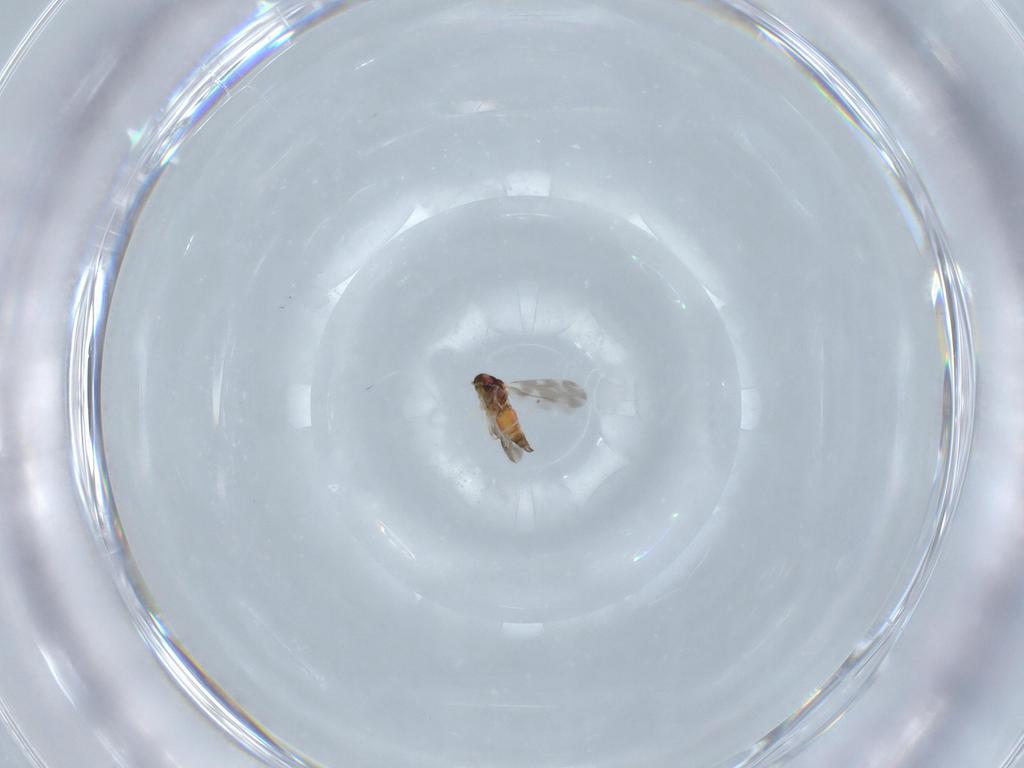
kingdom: Animalia
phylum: Arthropoda
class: Insecta
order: Hemiptera
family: Aleyrodidae
